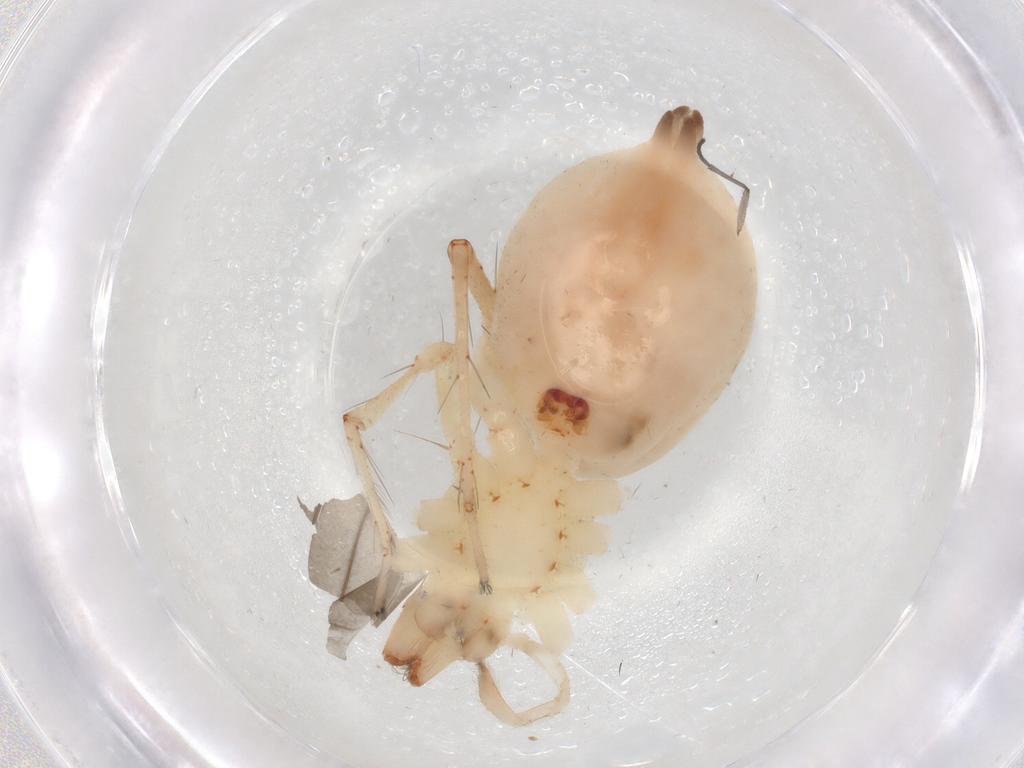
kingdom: Animalia
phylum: Arthropoda
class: Arachnida
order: Araneae
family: Anyphaenidae
